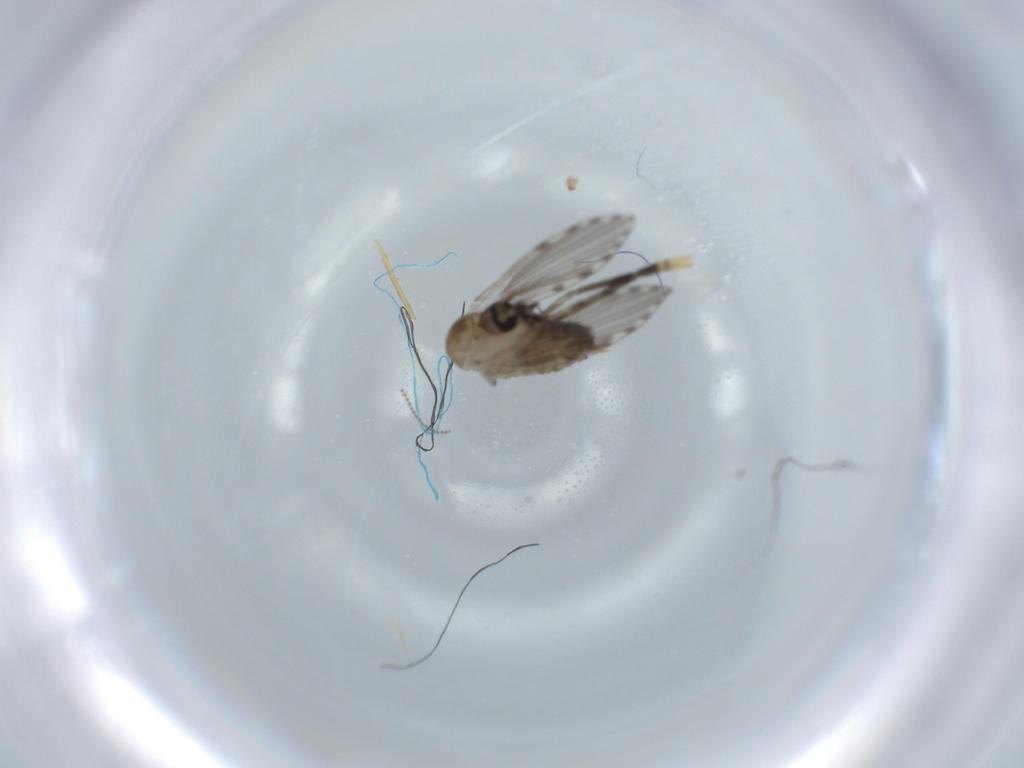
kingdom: Animalia
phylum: Arthropoda
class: Insecta
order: Diptera
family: Psychodidae
